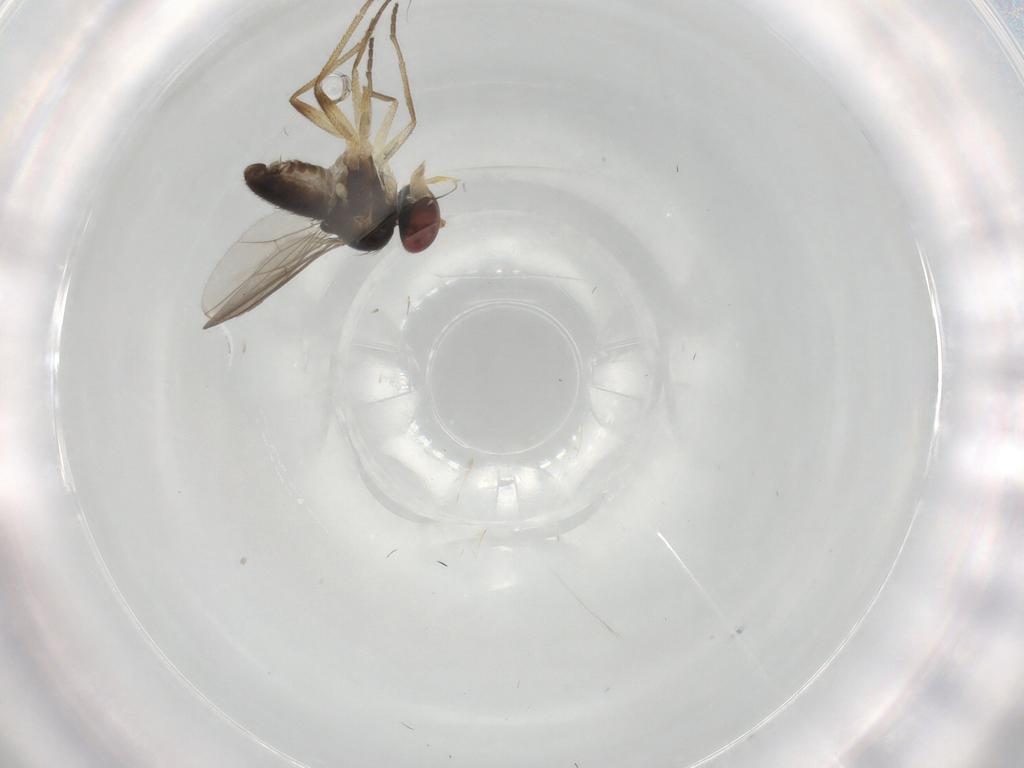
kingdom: Animalia
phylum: Arthropoda
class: Insecta
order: Diptera
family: Dolichopodidae
